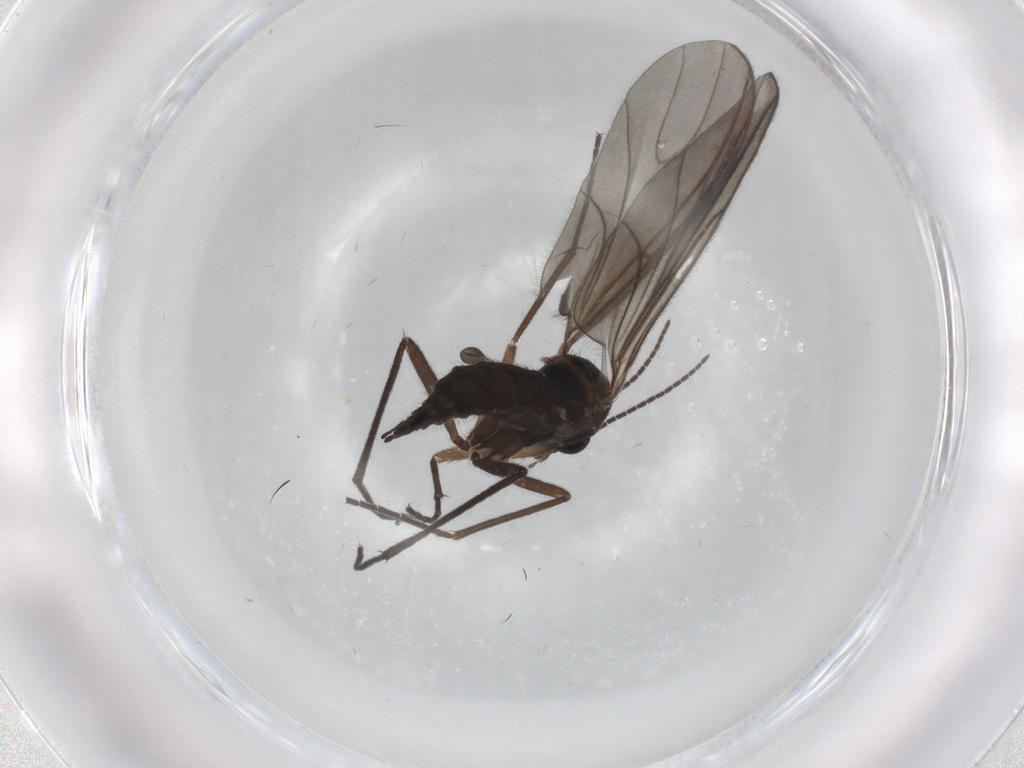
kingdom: Animalia
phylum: Arthropoda
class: Insecta
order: Diptera
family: Sciaridae
